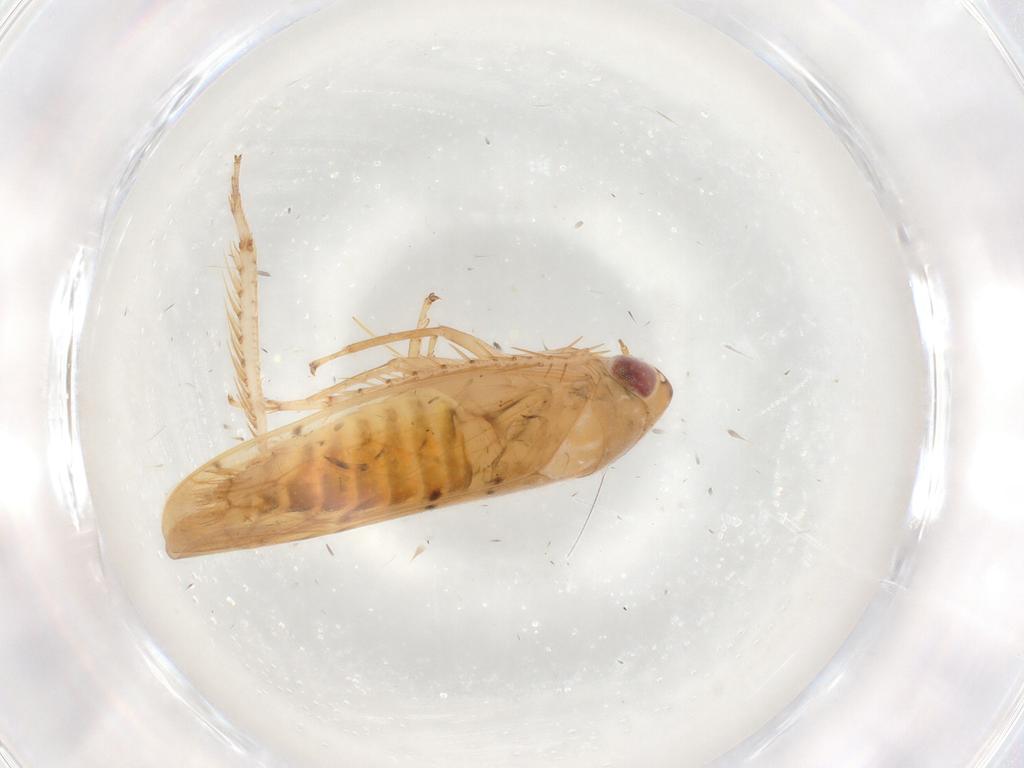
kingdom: Animalia
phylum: Arthropoda
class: Insecta
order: Hemiptera
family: Cicadellidae
